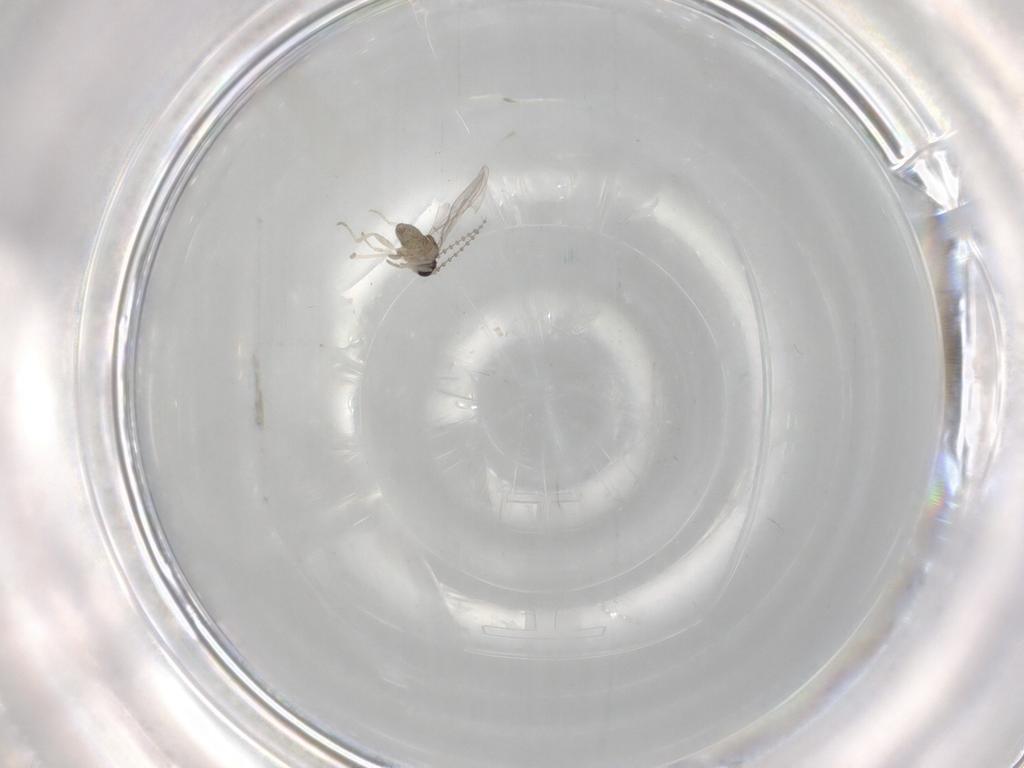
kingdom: Animalia
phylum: Arthropoda
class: Insecta
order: Diptera
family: Cecidomyiidae
